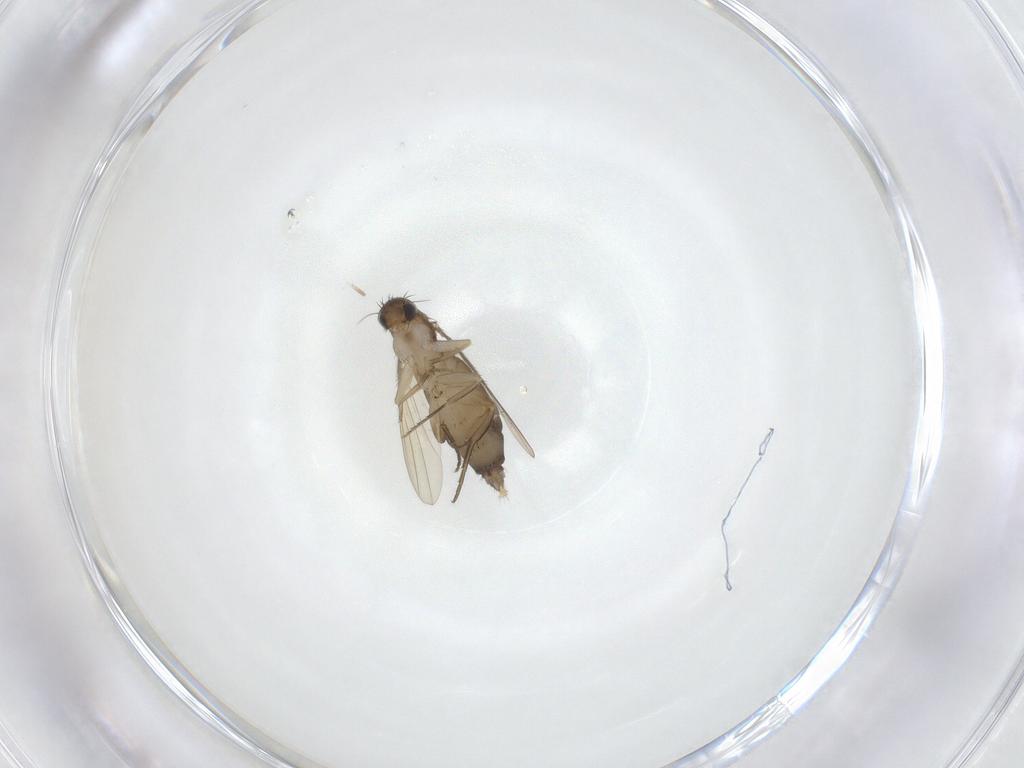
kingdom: Animalia
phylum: Arthropoda
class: Insecta
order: Diptera
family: Phoridae
